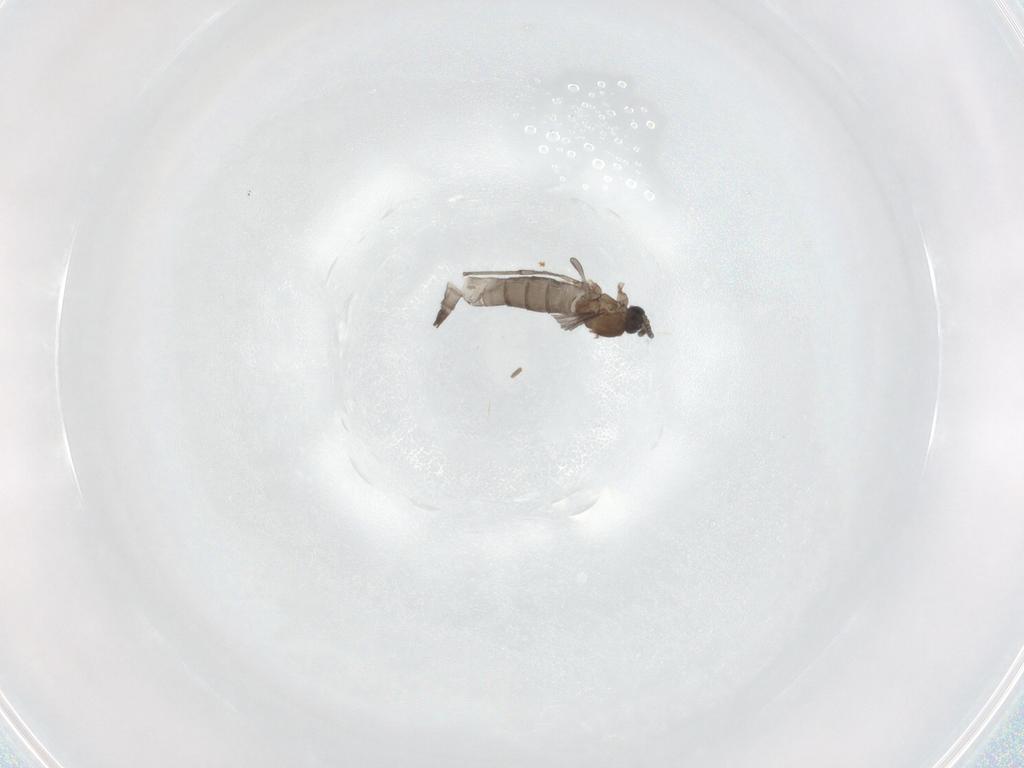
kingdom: Animalia
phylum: Arthropoda
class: Insecta
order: Diptera
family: Sciaridae
